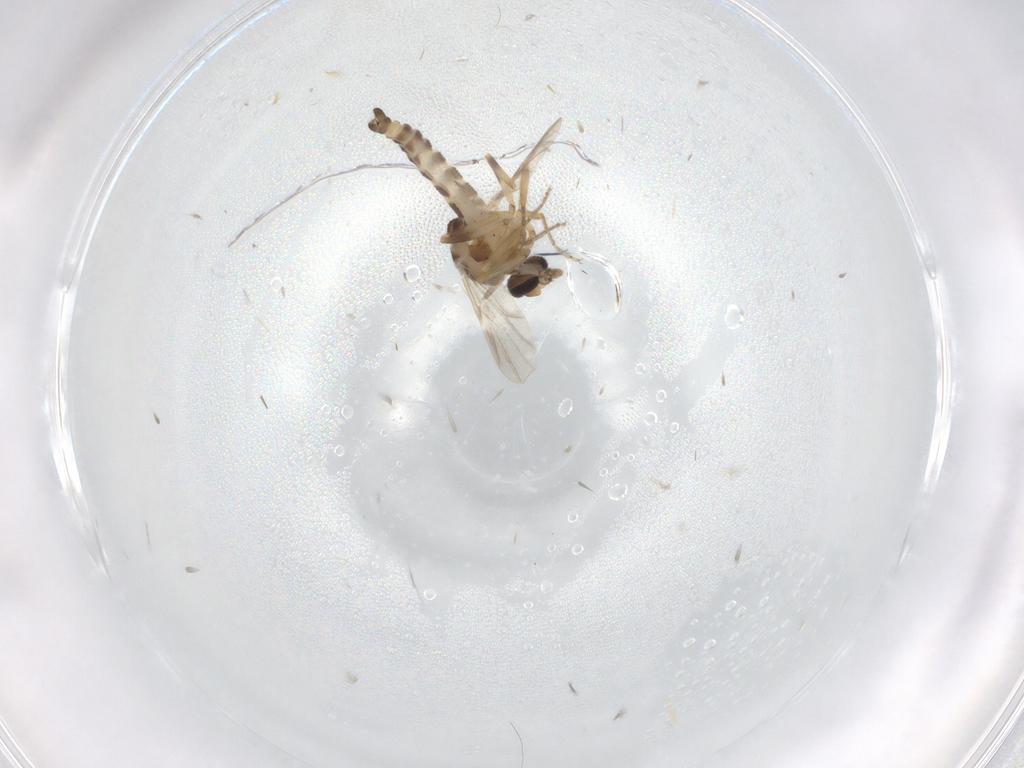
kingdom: Animalia
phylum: Arthropoda
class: Insecta
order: Diptera
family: Ceratopogonidae
